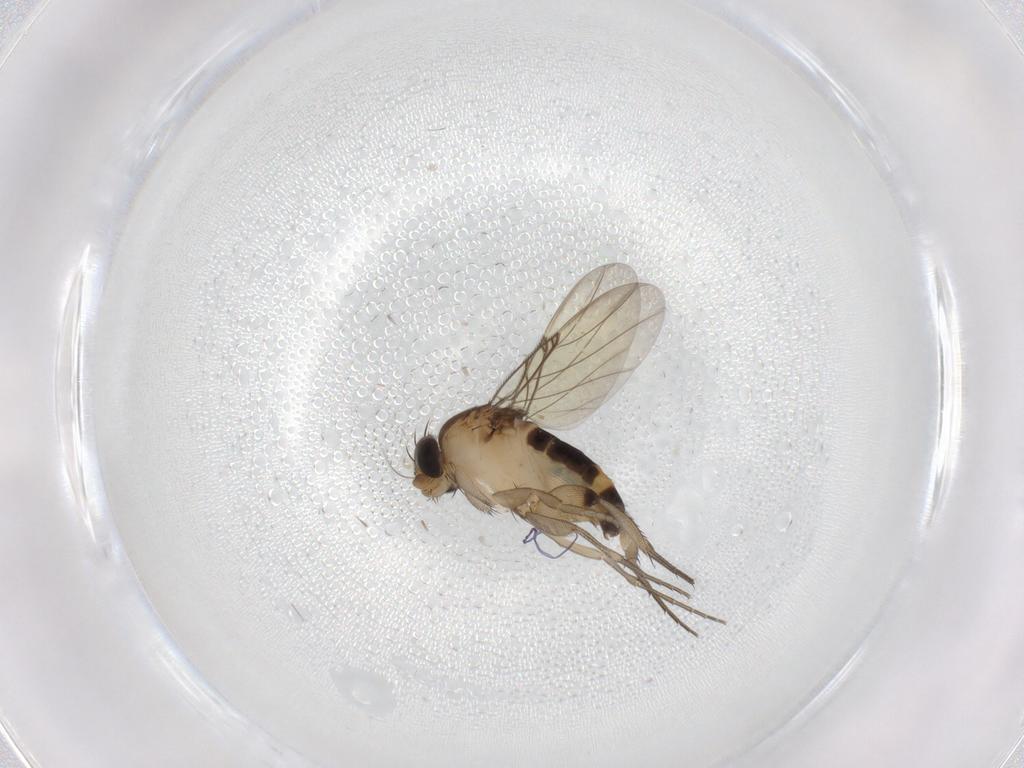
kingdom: Animalia
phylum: Arthropoda
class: Insecta
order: Diptera
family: Phoridae
